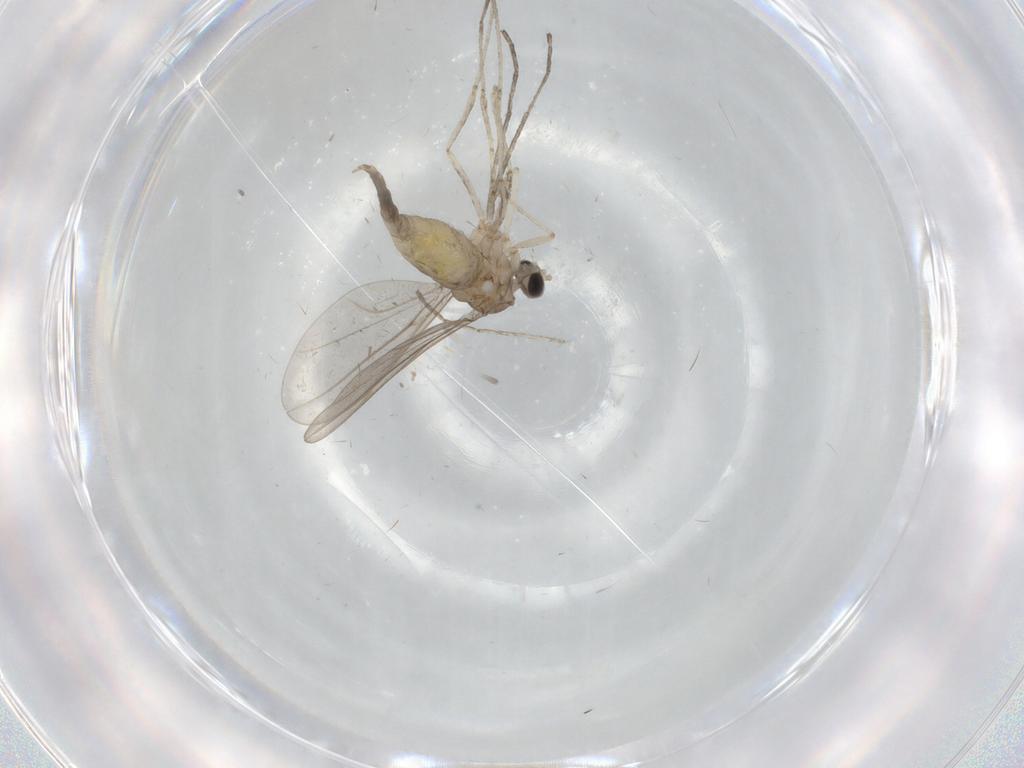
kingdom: Animalia
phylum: Arthropoda
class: Insecta
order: Diptera
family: Cecidomyiidae
